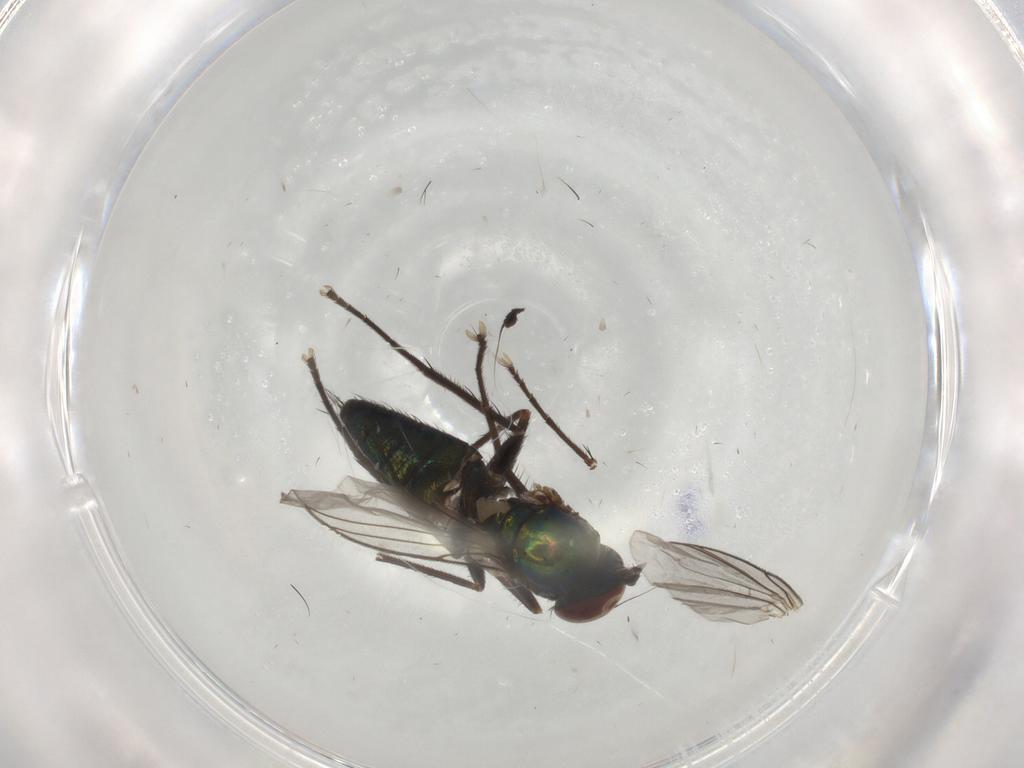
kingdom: Animalia
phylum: Arthropoda
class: Insecta
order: Diptera
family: Dolichopodidae
